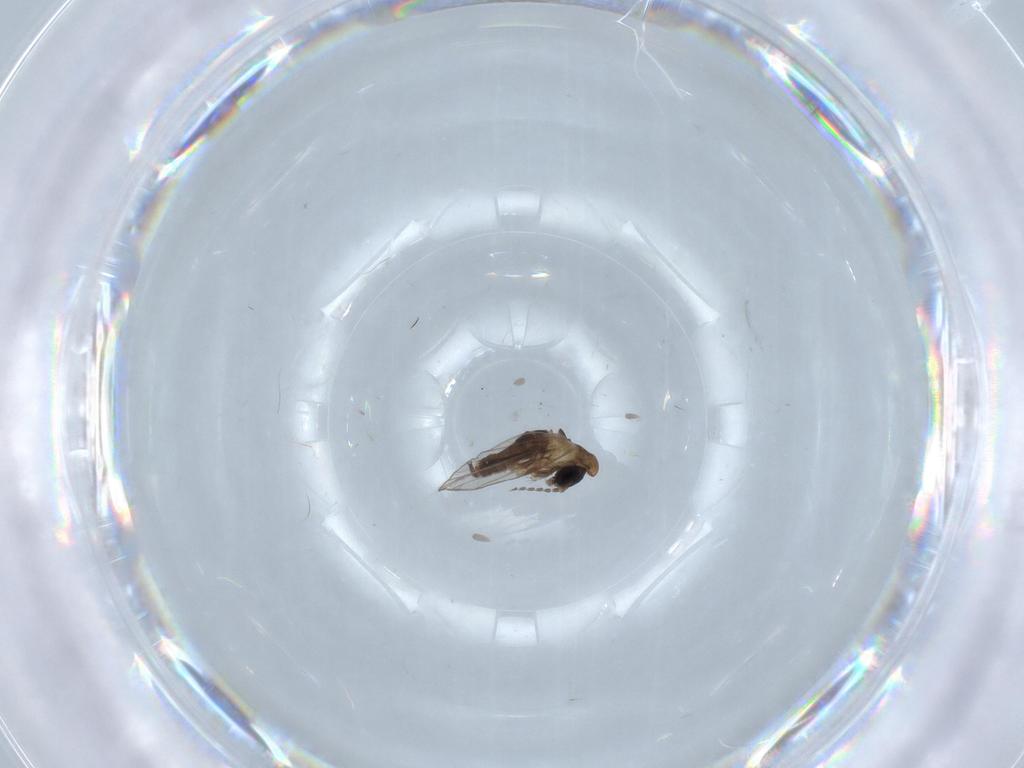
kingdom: Animalia
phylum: Arthropoda
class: Insecta
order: Diptera
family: Psychodidae
